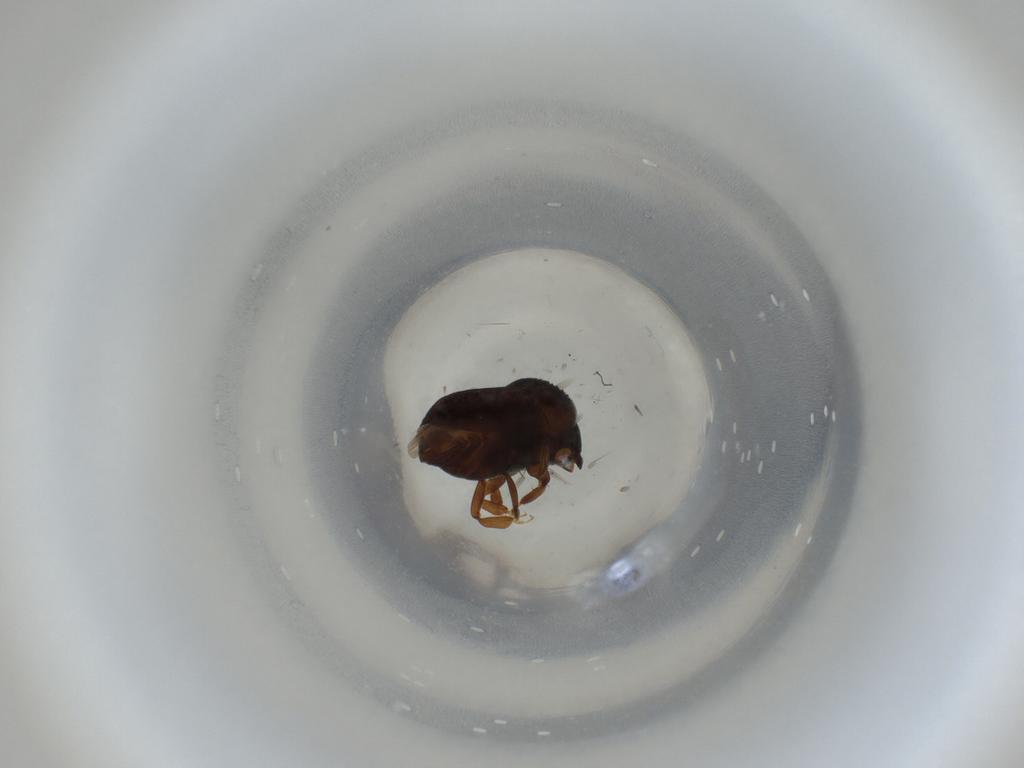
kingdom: Animalia
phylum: Arthropoda
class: Insecta
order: Coleoptera
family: Curculionidae
